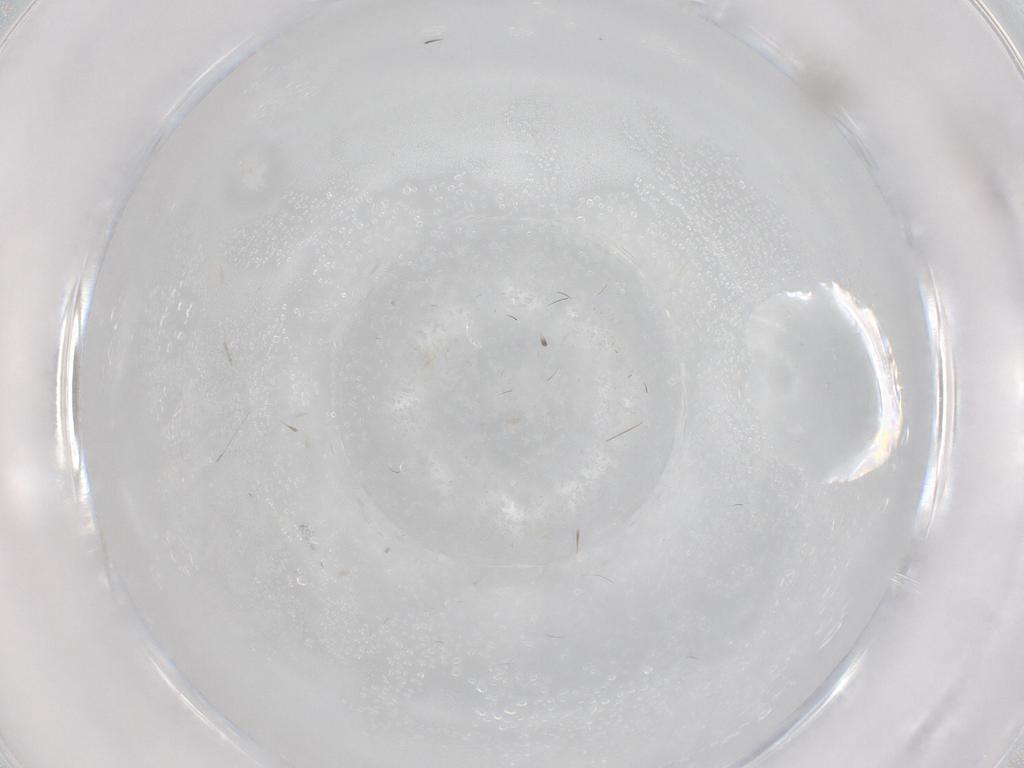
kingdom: Animalia
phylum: Arthropoda
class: Insecta
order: Diptera
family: Cecidomyiidae
